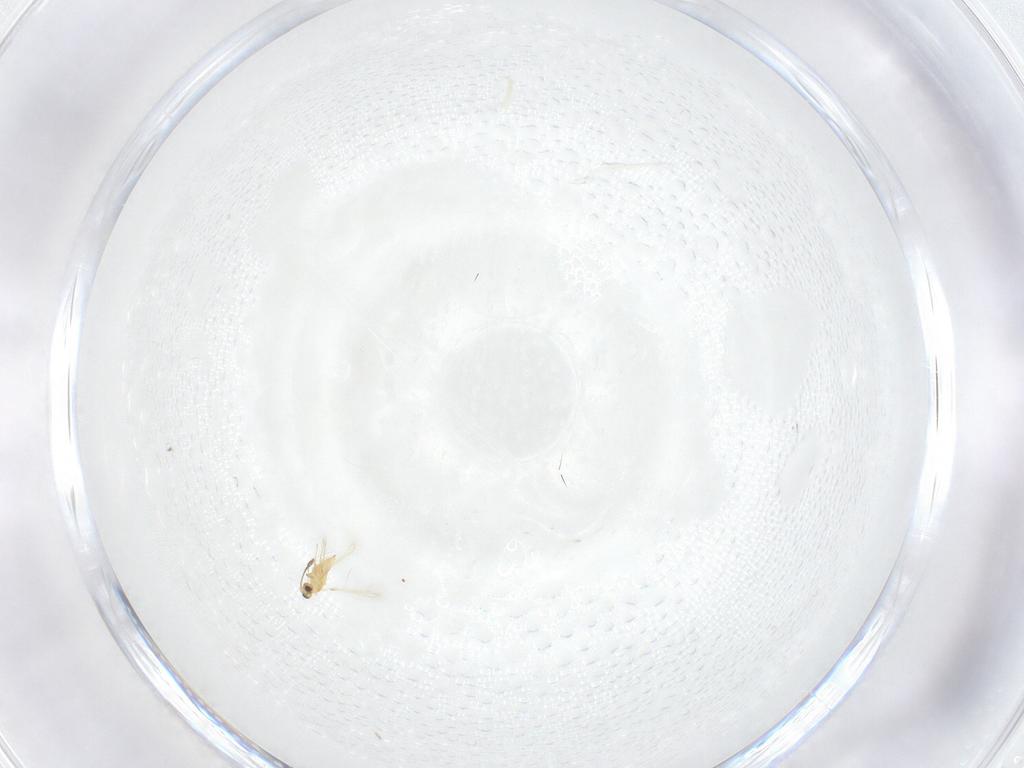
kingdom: Animalia
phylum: Arthropoda
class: Insecta
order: Hymenoptera
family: Mymaridae
